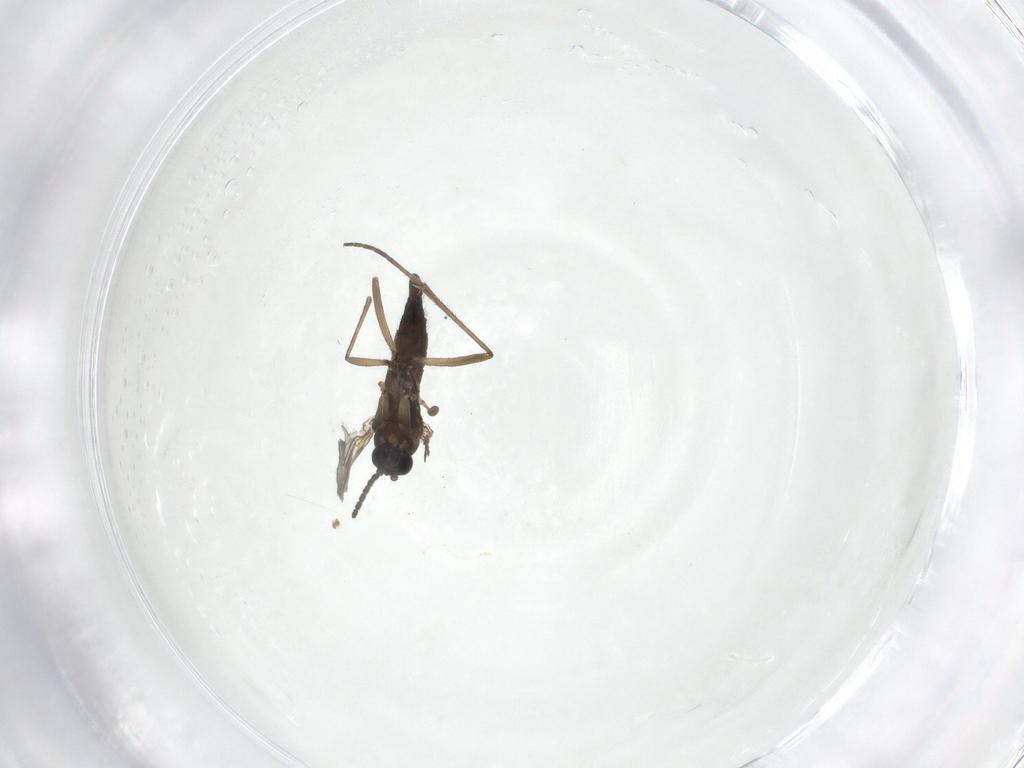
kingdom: Animalia
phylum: Arthropoda
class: Insecta
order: Diptera
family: Sciaridae
